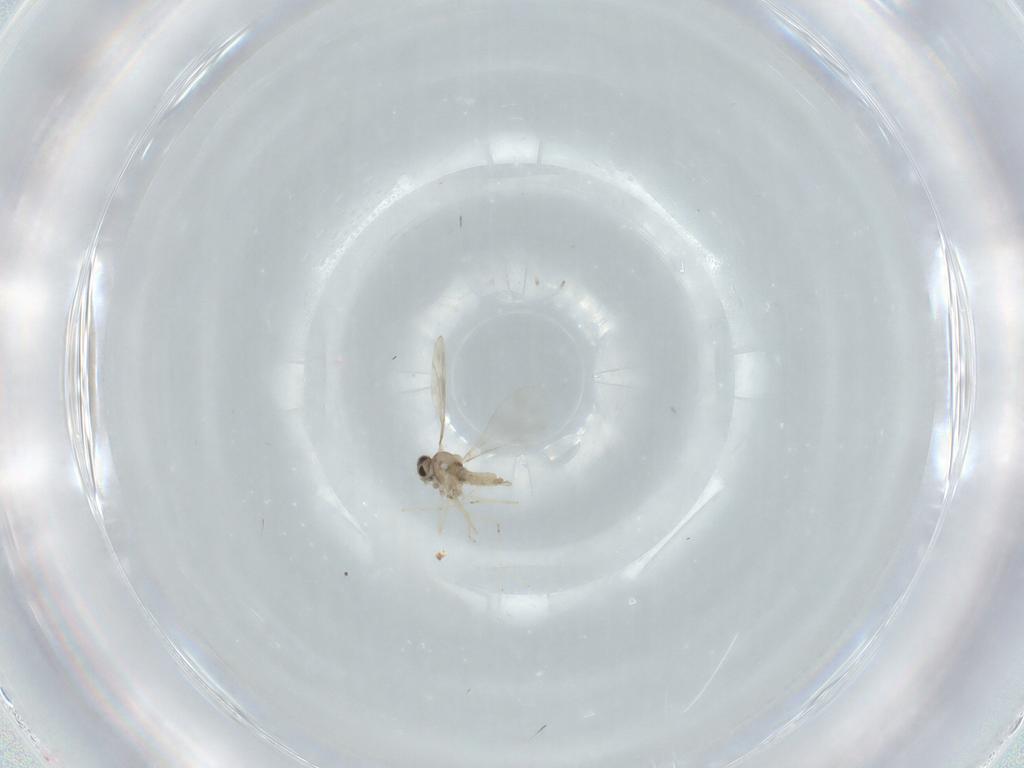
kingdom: Animalia
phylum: Arthropoda
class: Insecta
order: Diptera
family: Cecidomyiidae
